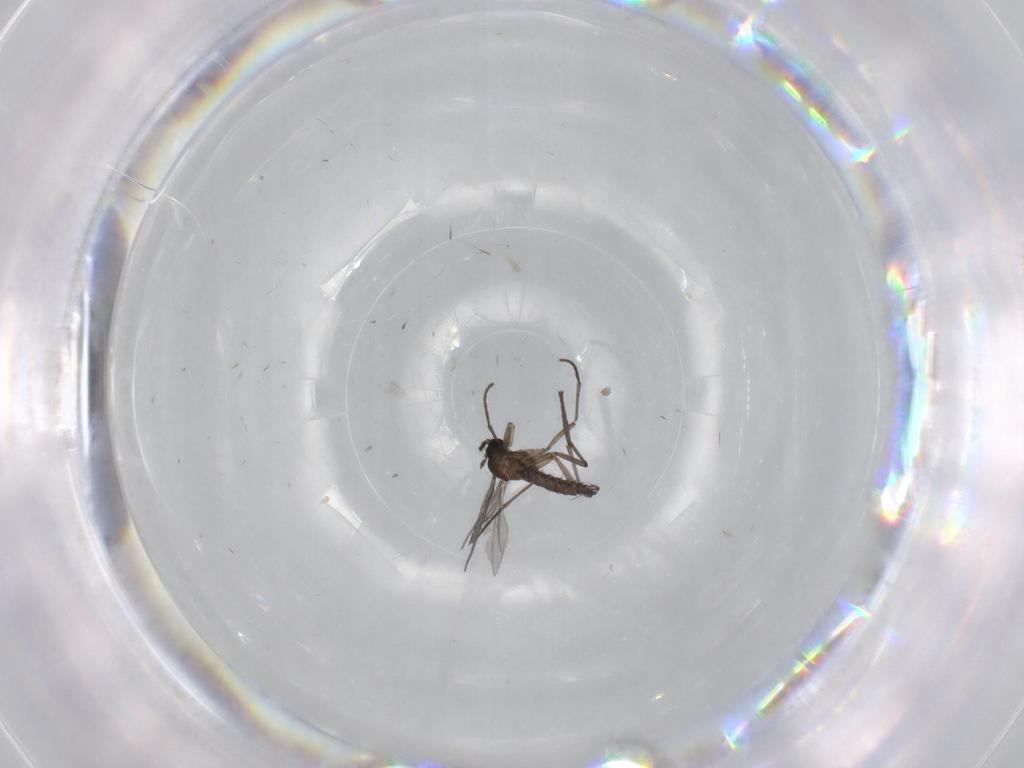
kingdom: Animalia
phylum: Arthropoda
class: Insecta
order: Diptera
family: Sciaridae
